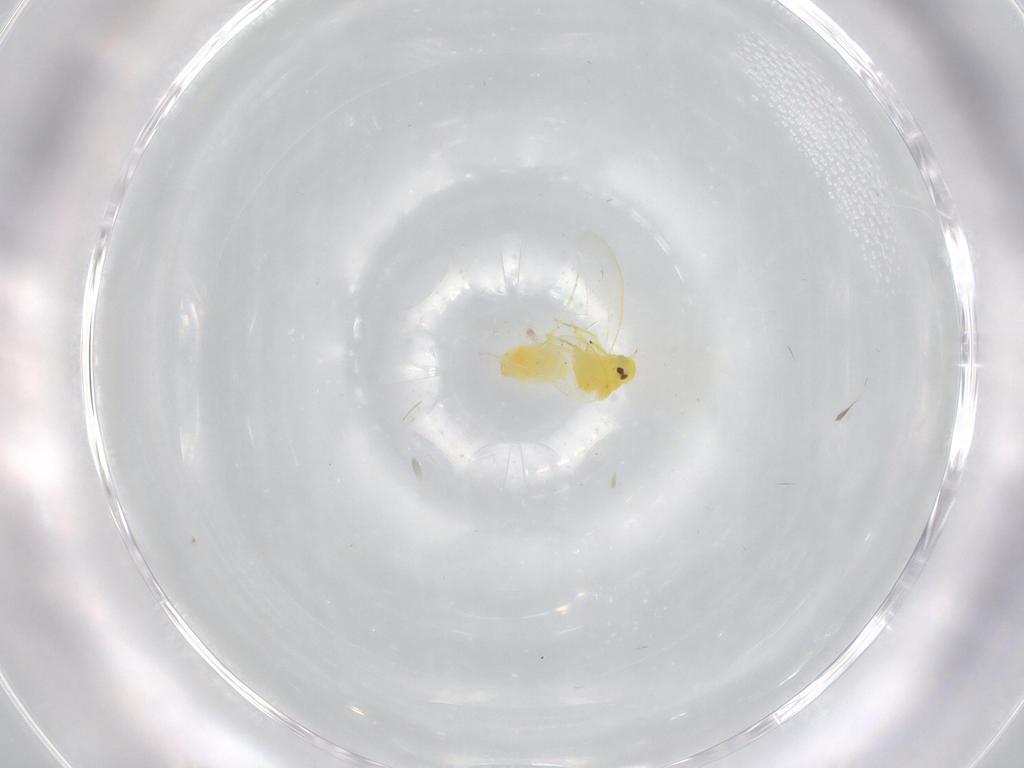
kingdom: Animalia
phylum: Arthropoda
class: Insecta
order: Hemiptera
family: Aleyrodidae
